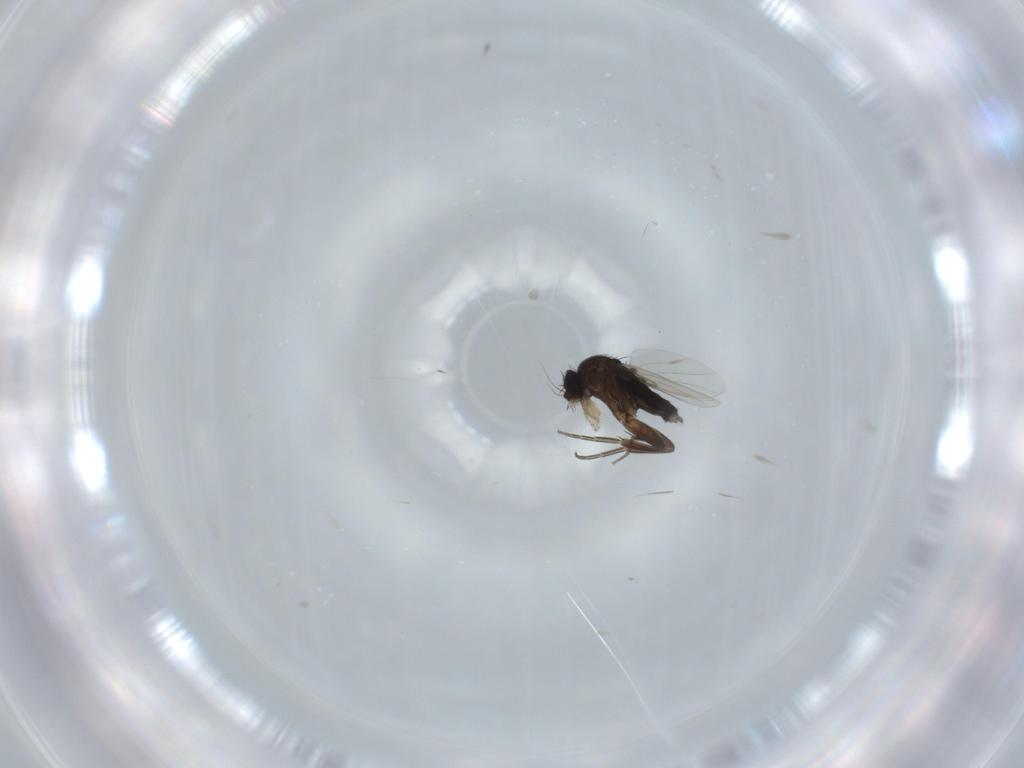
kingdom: Animalia
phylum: Arthropoda
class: Insecta
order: Diptera
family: Phoridae
